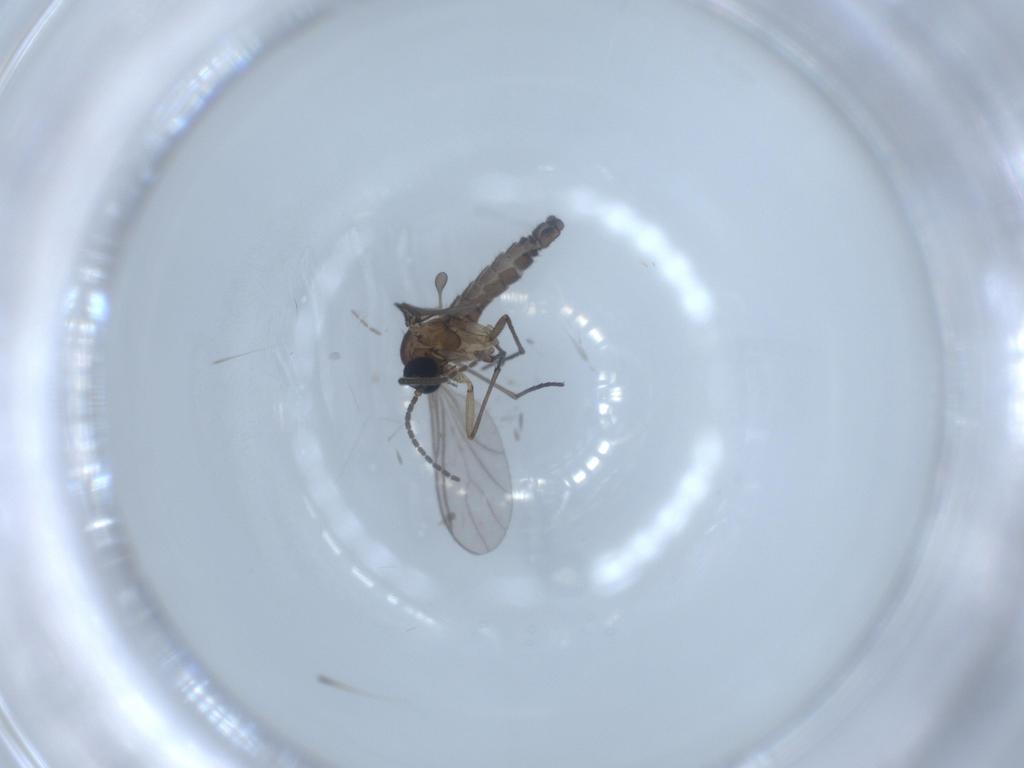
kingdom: Animalia
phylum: Arthropoda
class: Insecta
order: Diptera
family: Sciaridae
